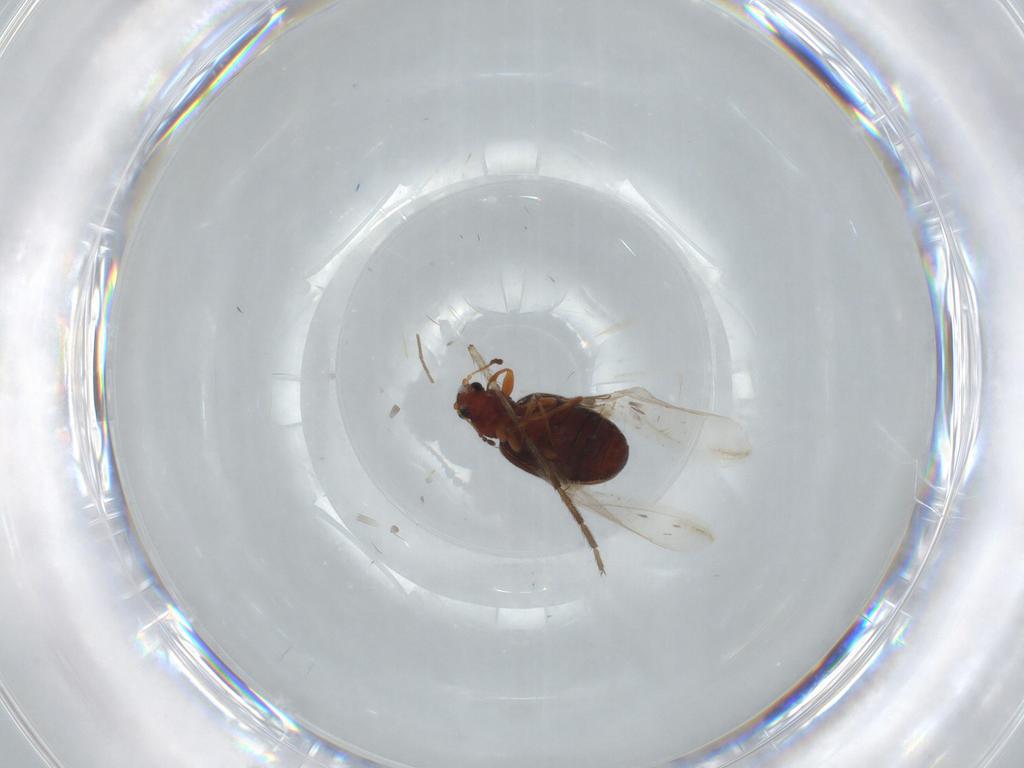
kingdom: Animalia
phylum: Arthropoda
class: Insecta
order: Coleoptera
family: Latridiidae
